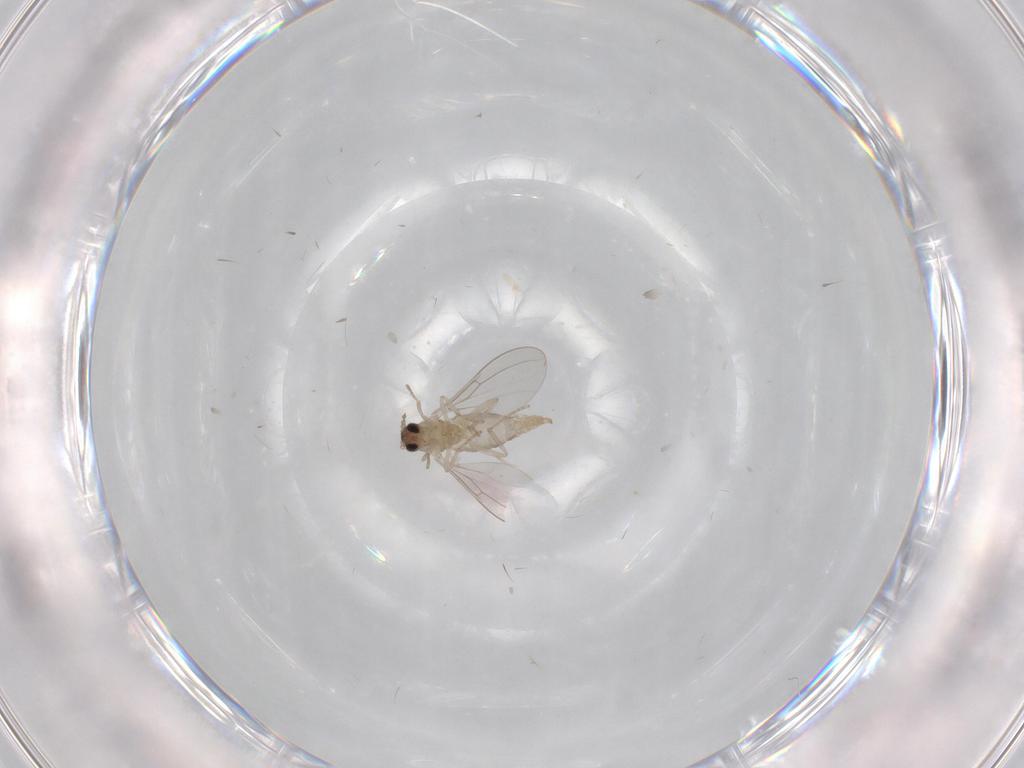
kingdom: Animalia
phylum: Arthropoda
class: Insecta
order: Diptera
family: Cecidomyiidae
